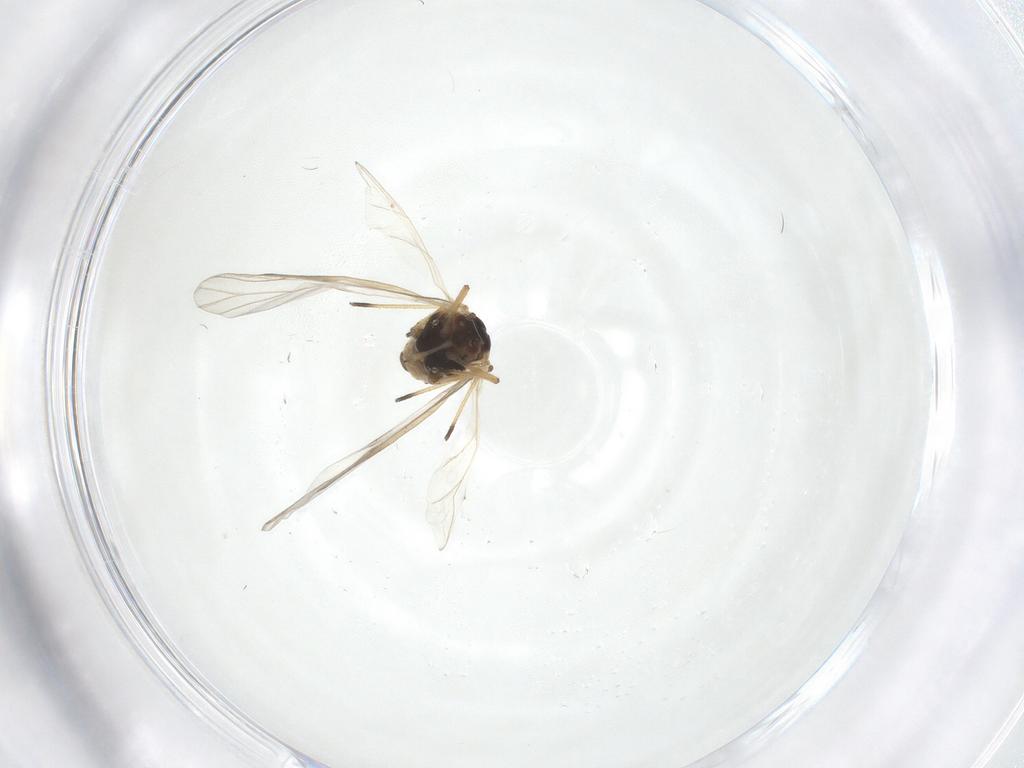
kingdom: Animalia
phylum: Arthropoda
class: Insecta
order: Hemiptera
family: Aphididae
